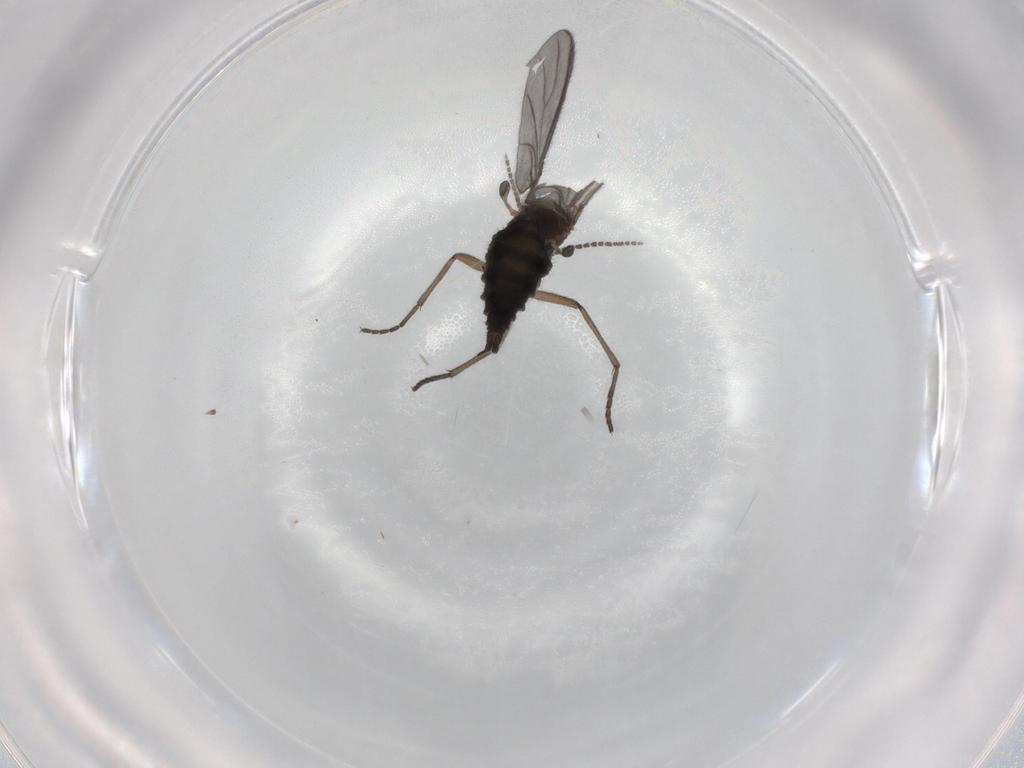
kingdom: Animalia
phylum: Arthropoda
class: Insecta
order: Diptera
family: Sciaridae
